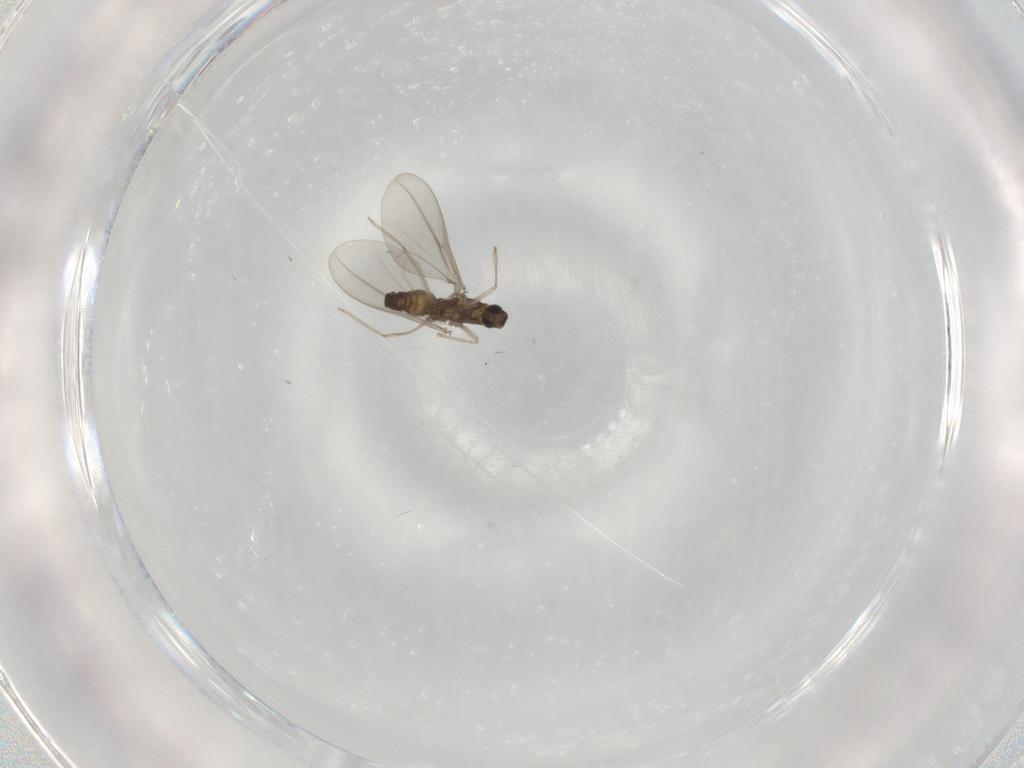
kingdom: Animalia
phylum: Arthropoda
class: Insecta
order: Diptera
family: Cecidomyiidae
